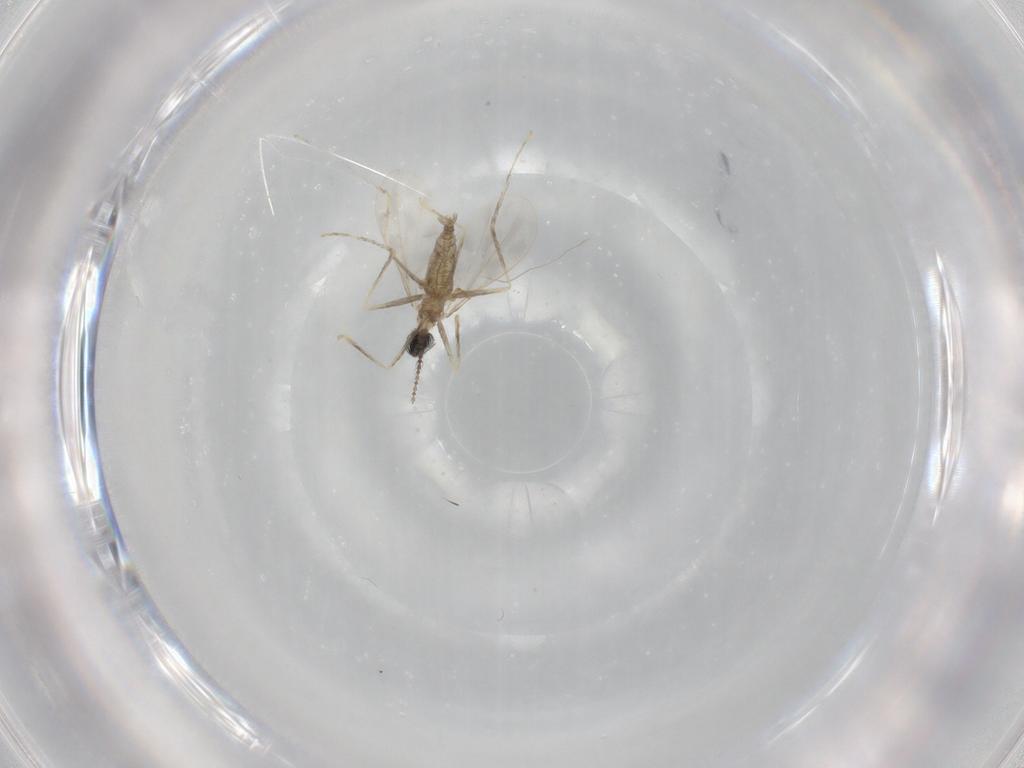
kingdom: Animalia
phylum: Arthropoda
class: Insecta
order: Diptera
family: Cecidomyiidae
